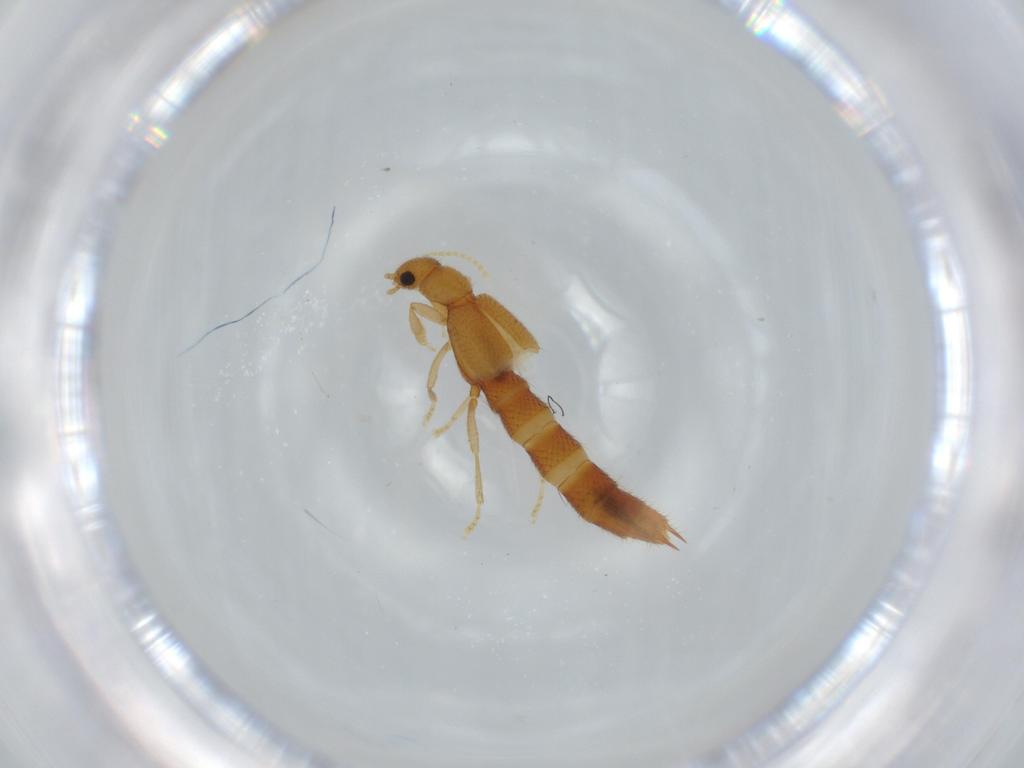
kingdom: Animalia
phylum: Arthropoda
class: Insecta
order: Coleoptera
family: Staphylinidae
